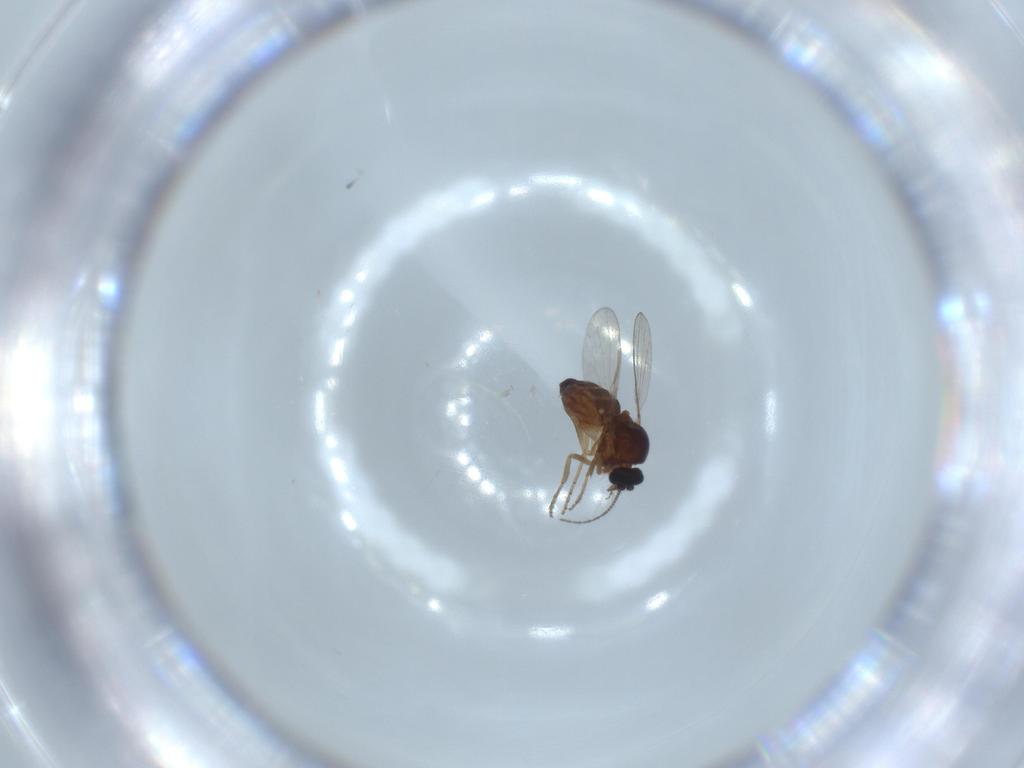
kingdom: Animalia
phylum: Arthropoda
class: Insecta
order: Diptera
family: Ceratopogonidae
